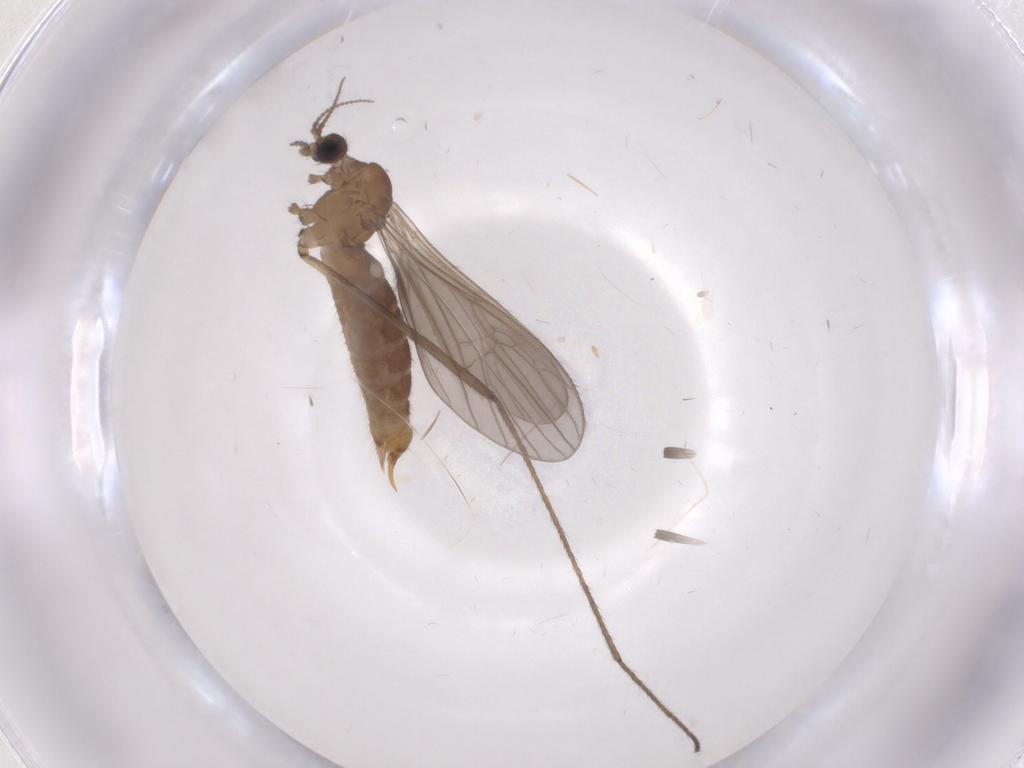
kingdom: Animalia
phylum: Arthropoda
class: Insecta
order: Diptera
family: Limoniidae
